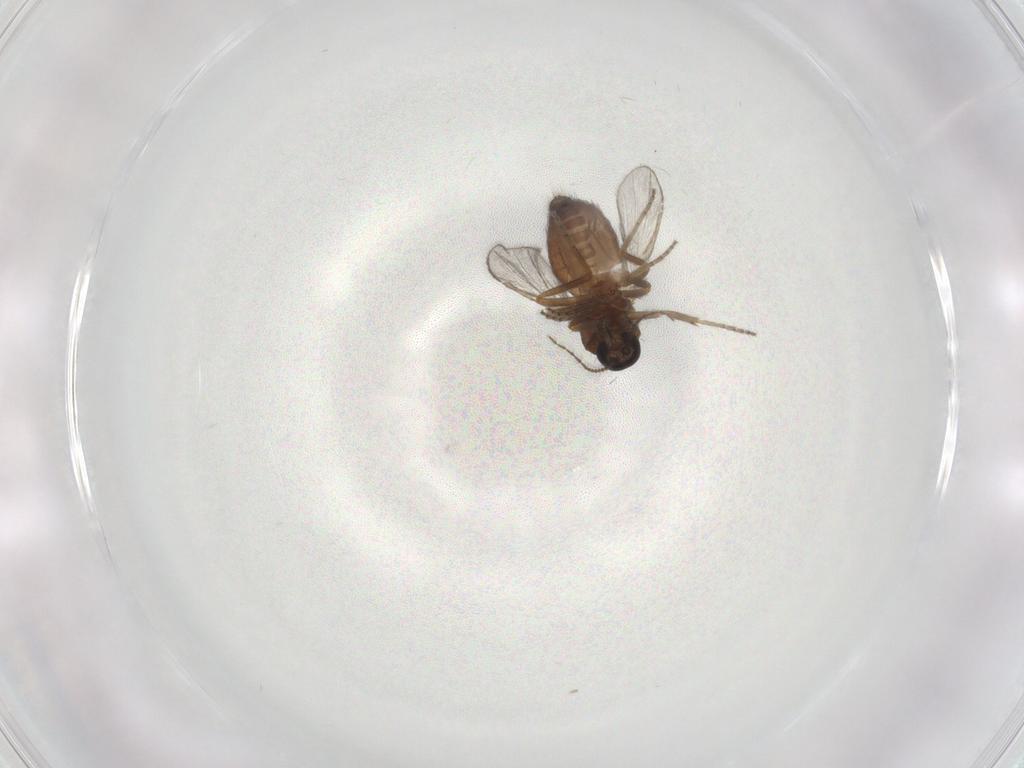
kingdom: Animalia
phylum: Arthropoda
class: Insecta
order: Diptera
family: Ceratopogonidae
